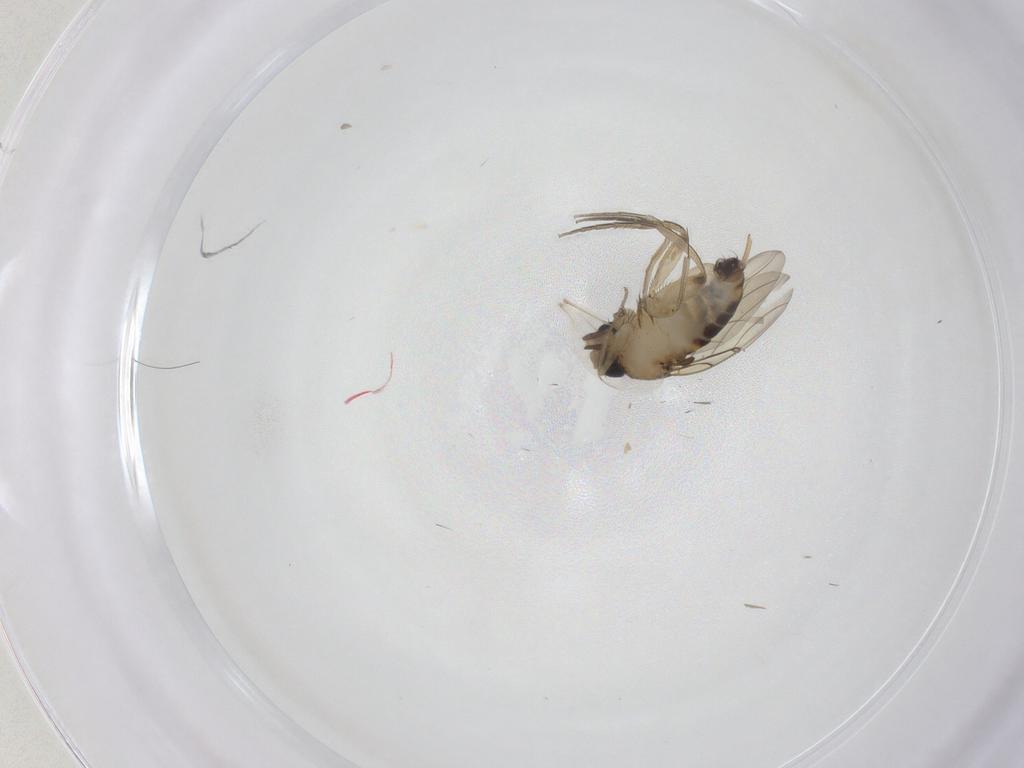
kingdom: Animalia
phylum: Arthropoda
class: Insecta
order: Diptera
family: Phoridae
